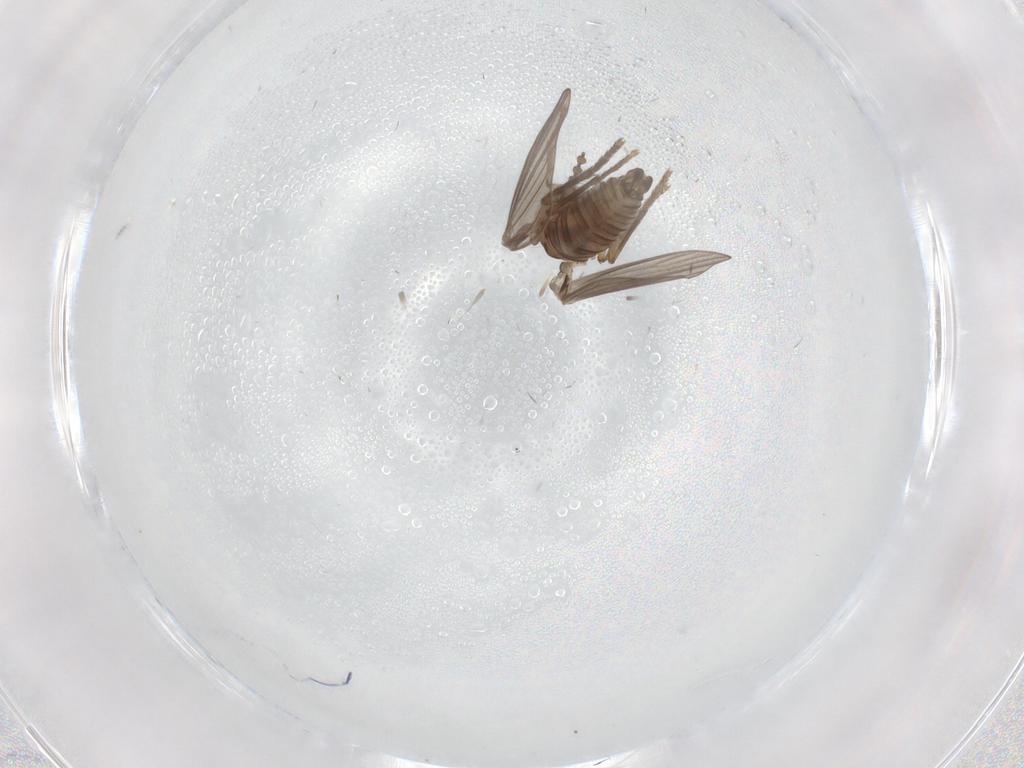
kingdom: Animalia
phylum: Arthropoda
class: Insecta
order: Diptera
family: Psychodidae
